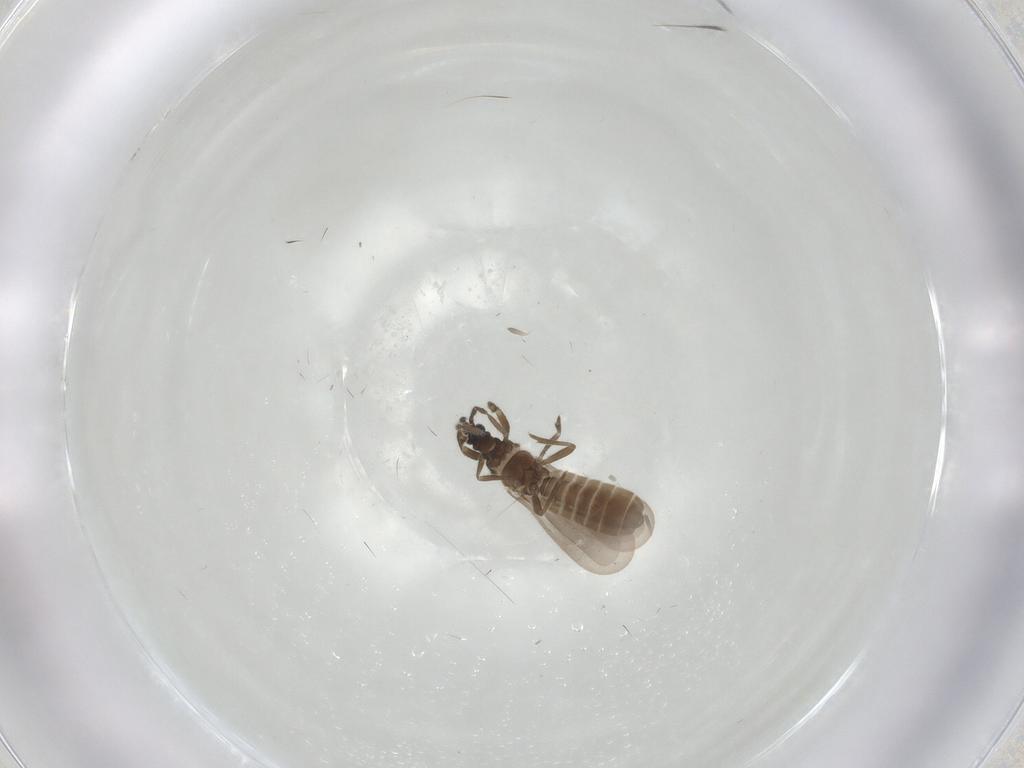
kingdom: Animalia
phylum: Arthropoda
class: Insecta
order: Hemiptera
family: Enicocephalidae
